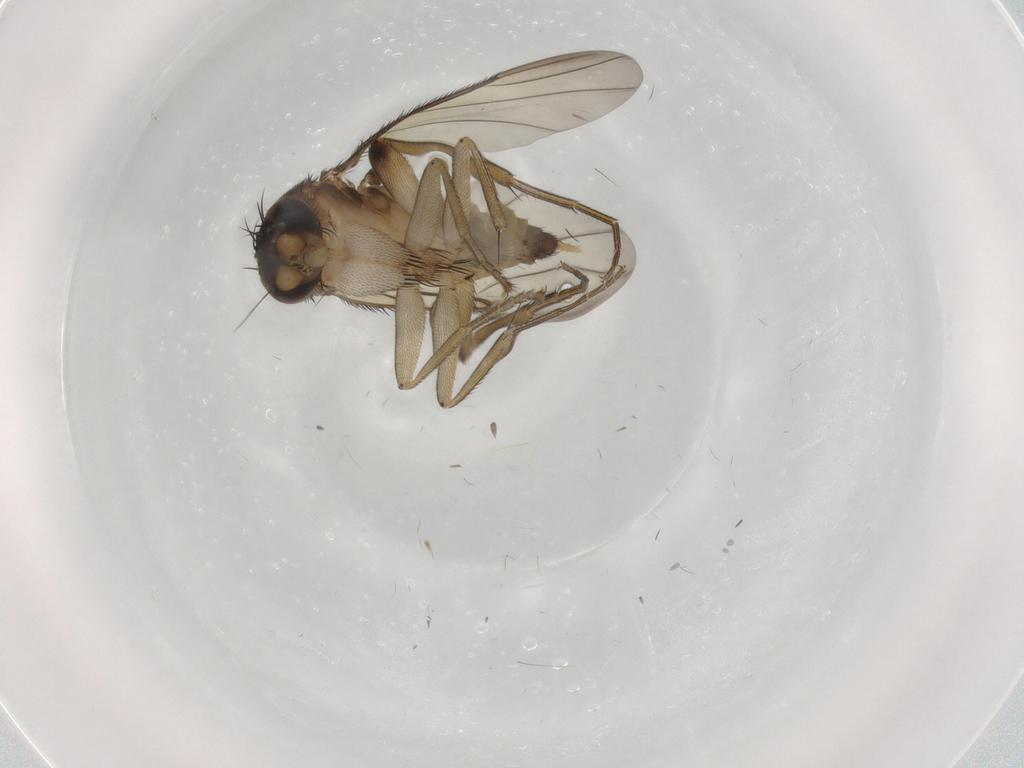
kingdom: Animalia
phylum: Arthropoda
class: Insecta
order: Diptera
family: Phoridae
